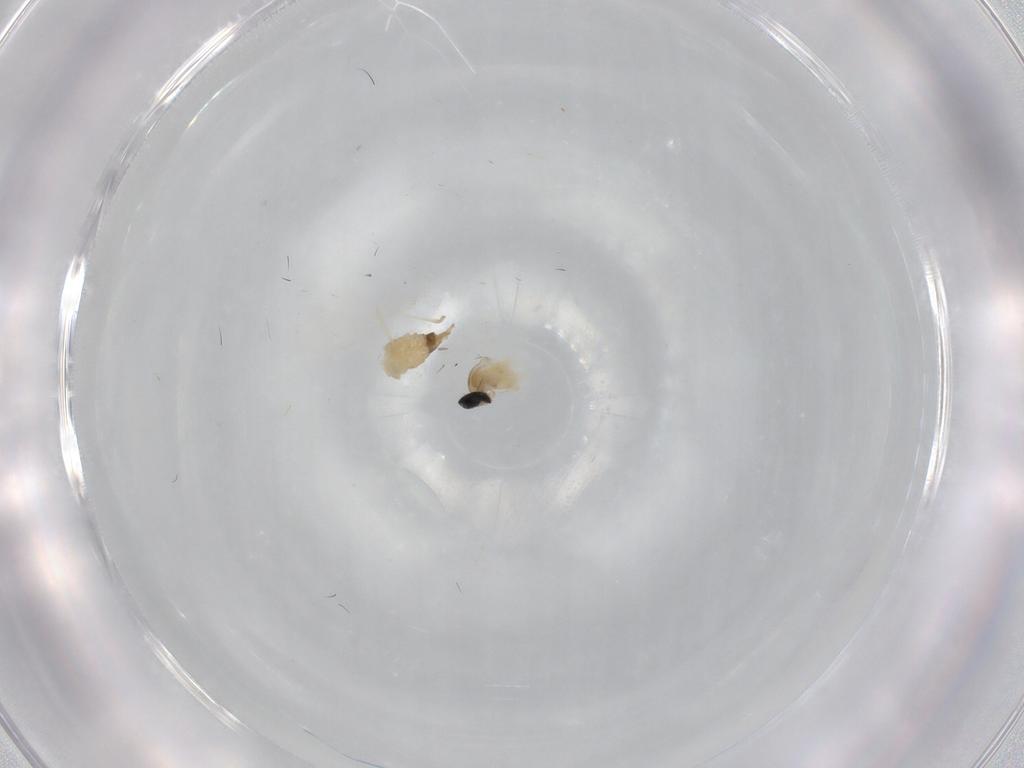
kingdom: Animalia
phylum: Arthropoda
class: Insecta
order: Diptera
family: Cecidomyiidae
